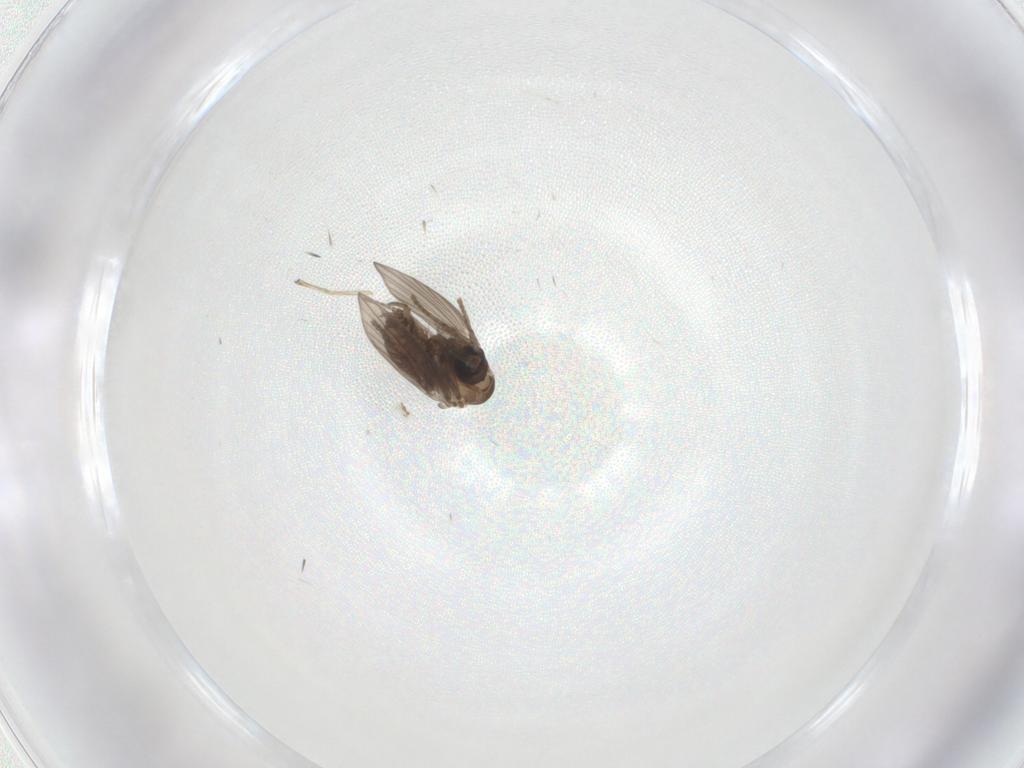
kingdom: Animalia
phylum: Arthropoda
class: Insecta
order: Diptera
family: Psychodidae
